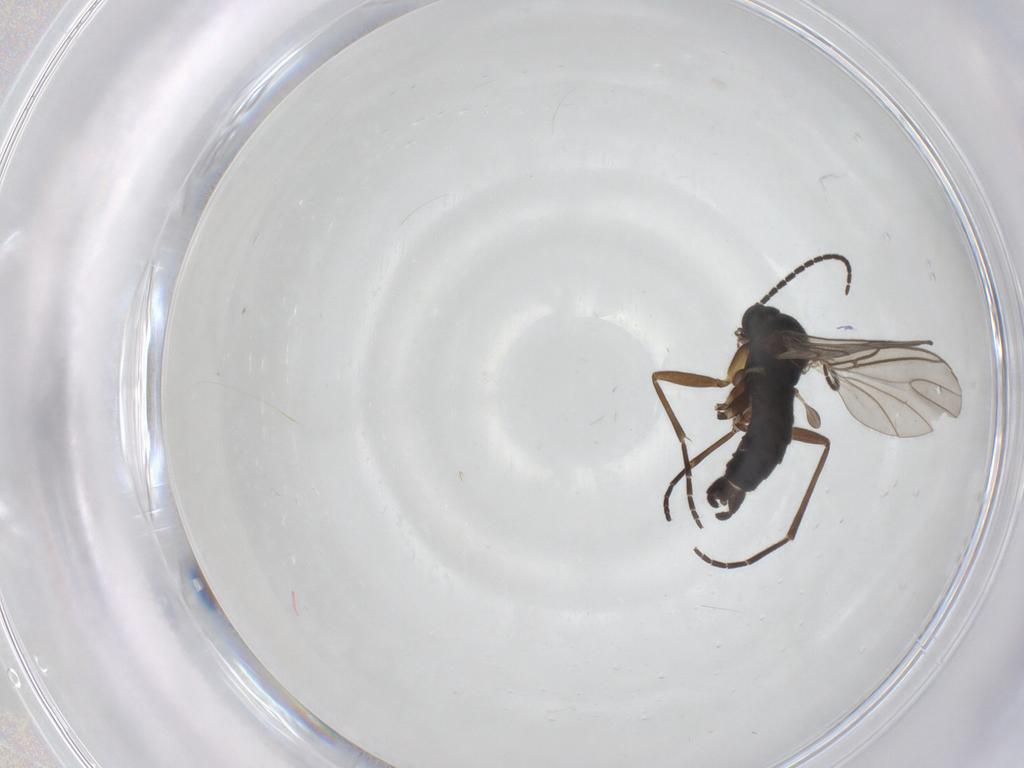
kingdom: Animalia
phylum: Arthropoda
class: Insecta
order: Diptera
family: Sciaridae
